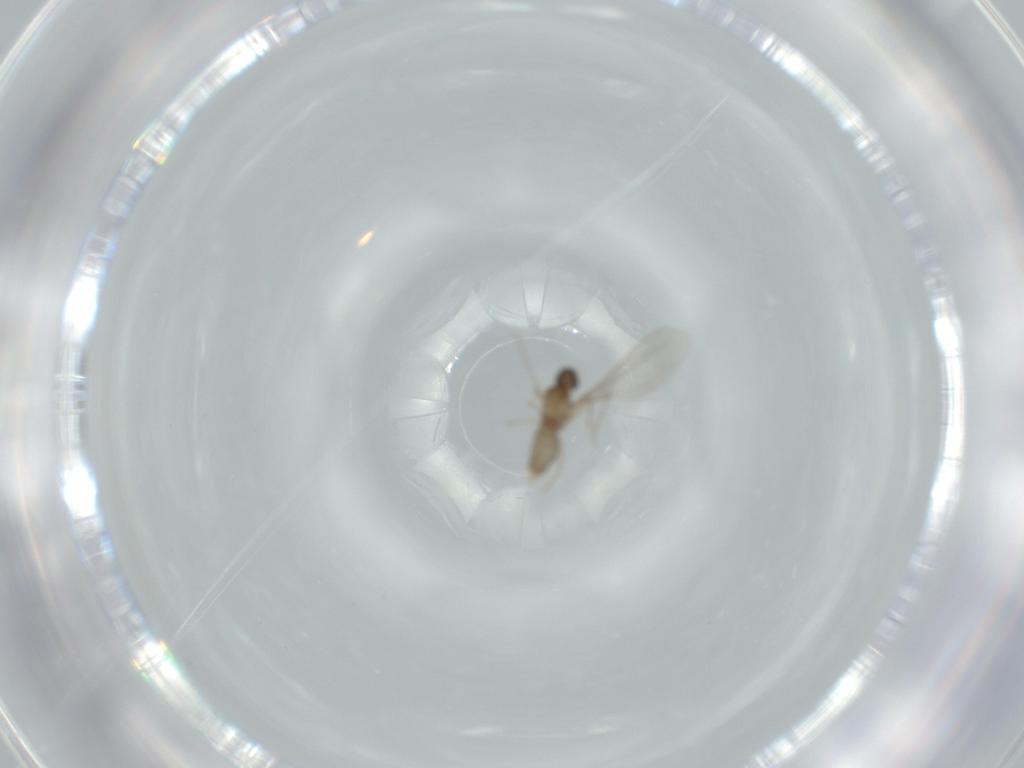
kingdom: Animalia
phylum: Arthropoda
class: Insecta
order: Diptera
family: Cecidomyiidae
